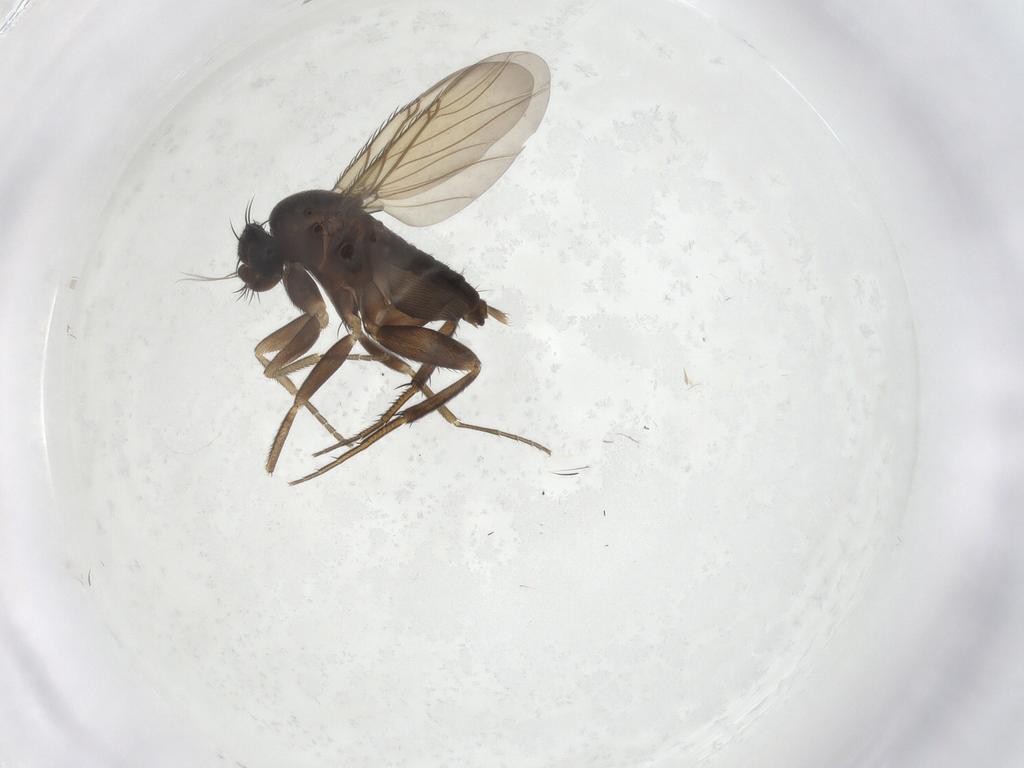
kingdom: Animalia
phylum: Arthropoda
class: Insecta
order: Diptera
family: Phoridae
